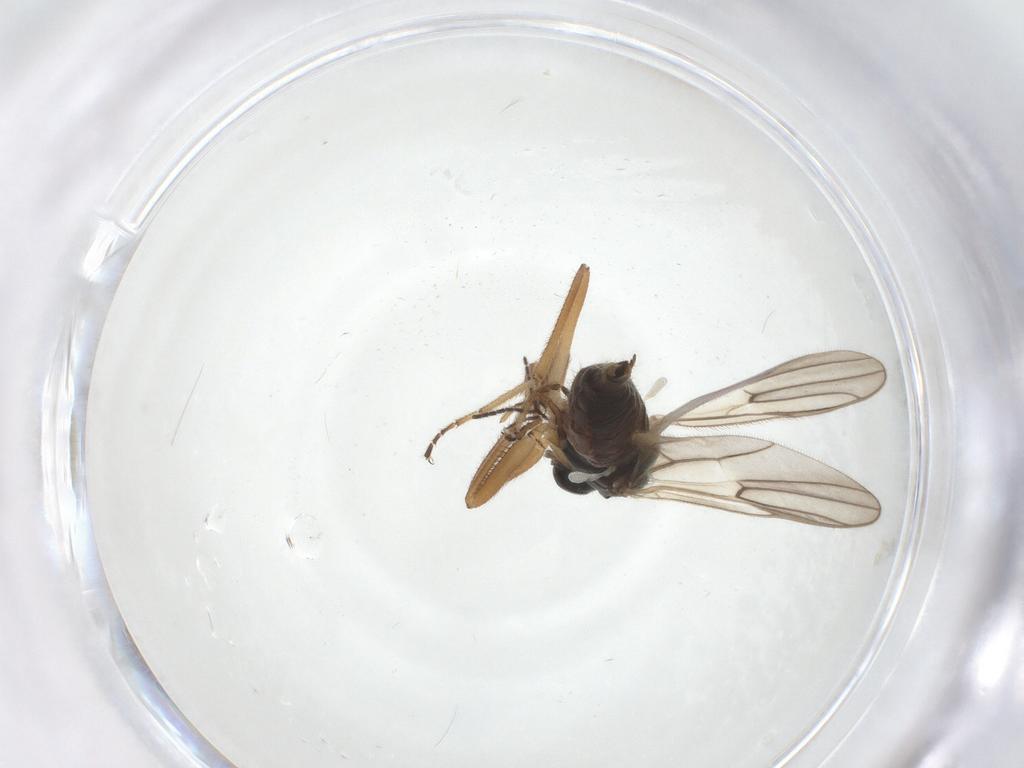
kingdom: Animalia
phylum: Arthropoda
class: Insecta
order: Diptera
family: Hybotidae
